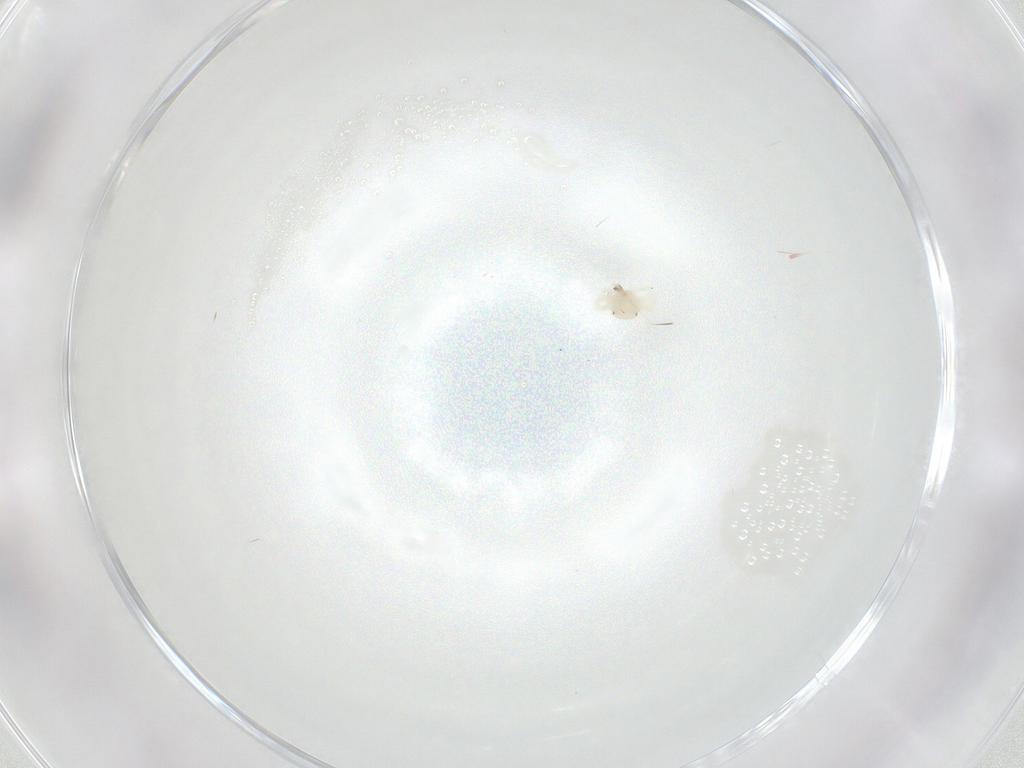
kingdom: Animalia
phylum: Arthropoda
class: Arachnida
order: Trombidiformes
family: Anystidae
